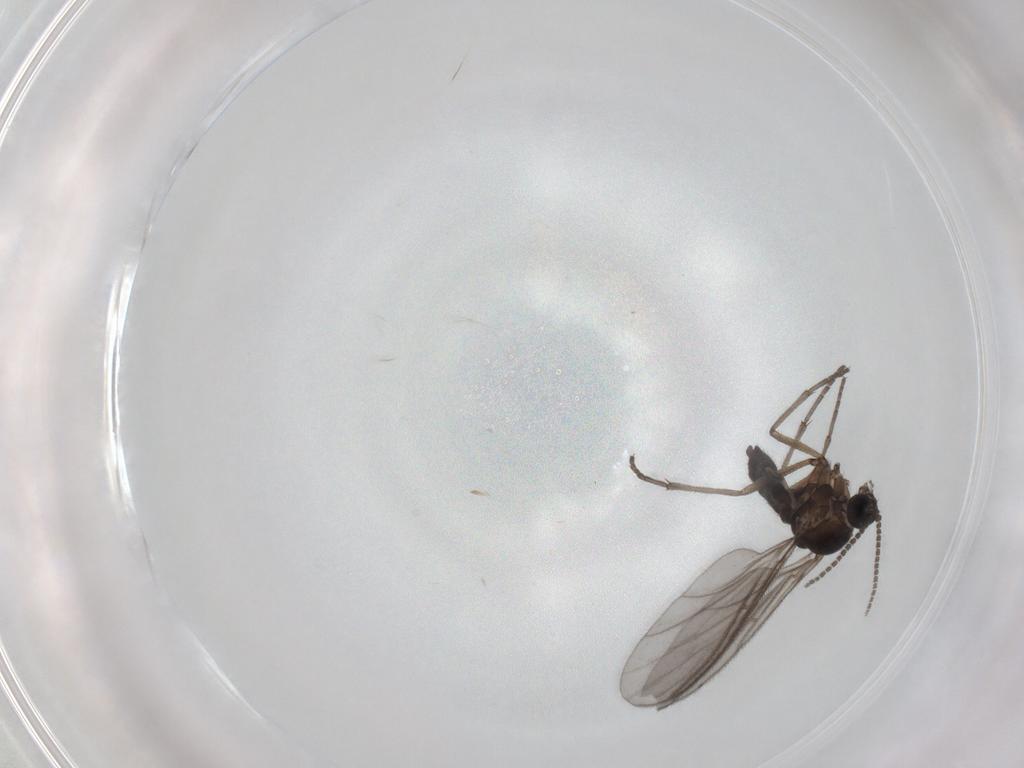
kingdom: Animalia
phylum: Arthropoda
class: Insecta
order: Diptera
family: Sciaridae
